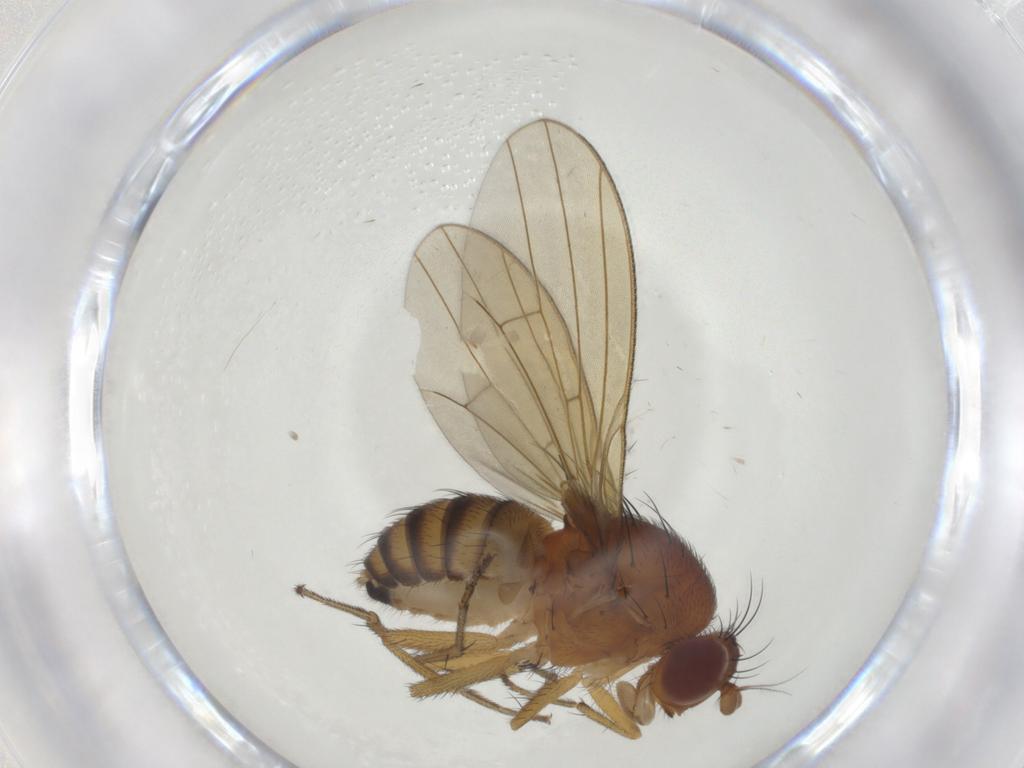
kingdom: Animalia
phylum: Arthropoda
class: Insecta
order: Diptera
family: Cecidomyiidae
